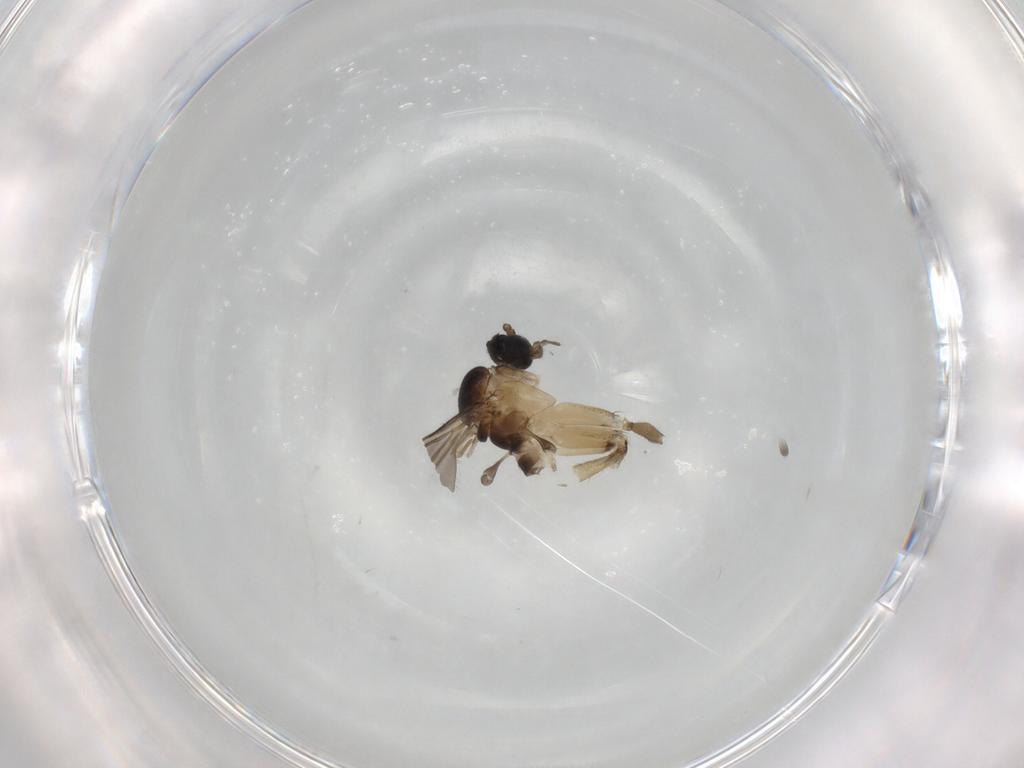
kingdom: Animalia
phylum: Arthropoda
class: Insecta
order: Diptera
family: Sciaridae
